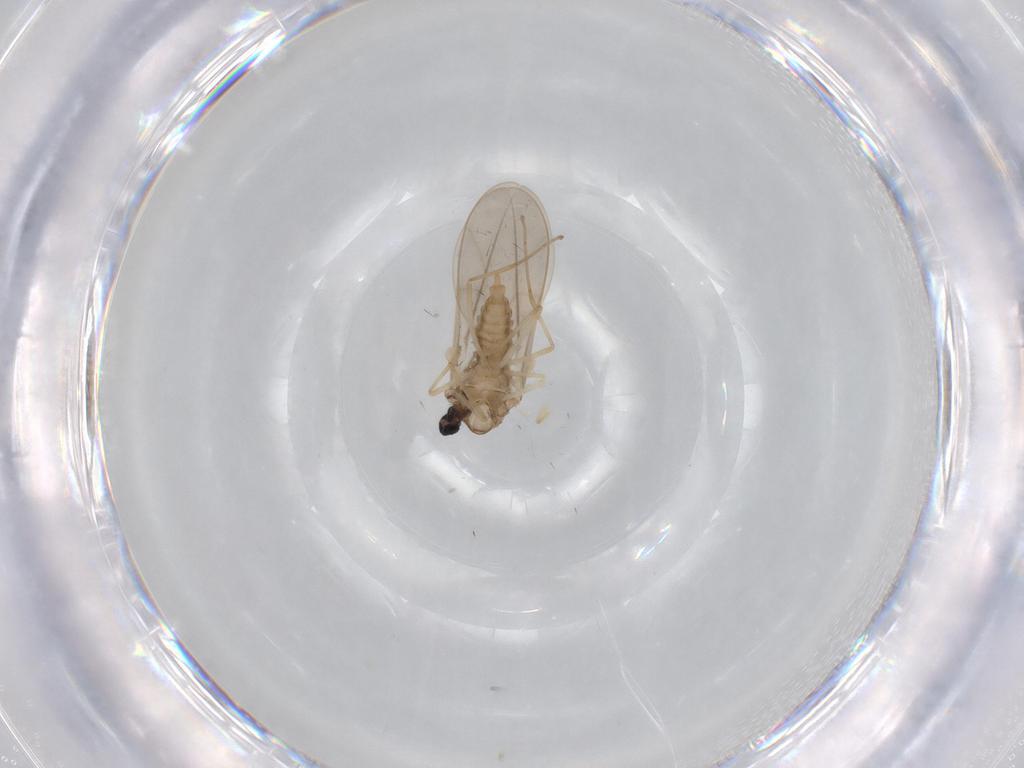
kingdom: Animalia
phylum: Arthropoda
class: Insecta
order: Diptera
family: Cecidomyiidae
